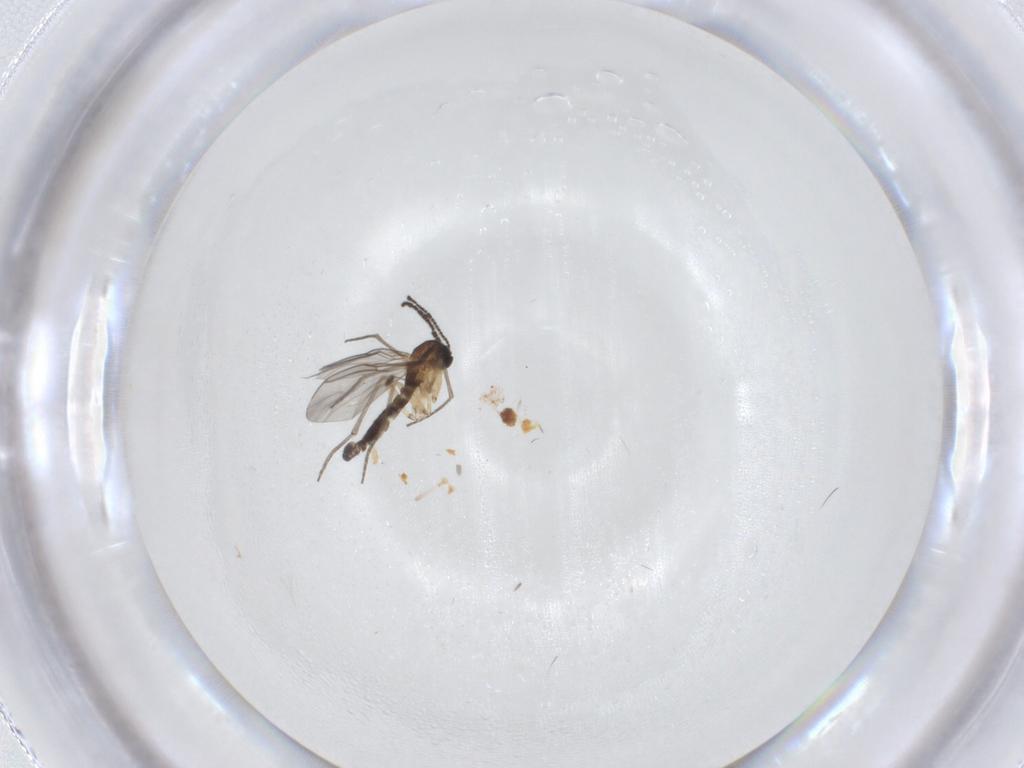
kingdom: Animalia
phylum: Arthropoda
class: Insecta
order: Diptera
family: Sciaridae
